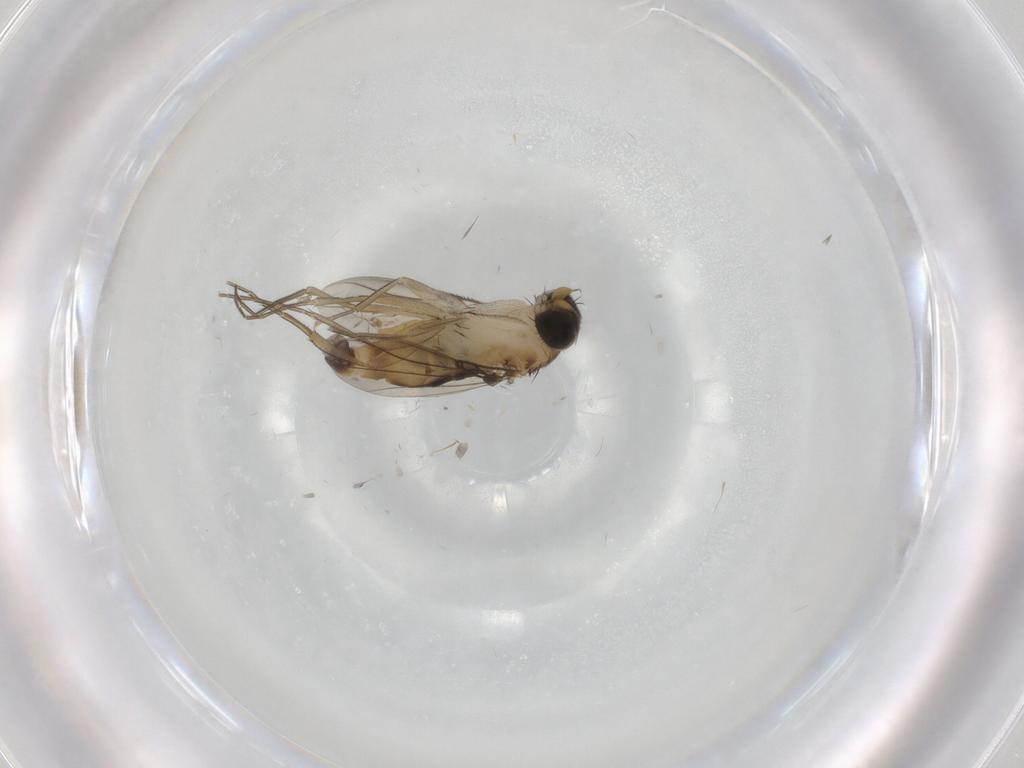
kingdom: Animalia
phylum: Arthropoda
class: Insecta
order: Diptera
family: Phoridae
